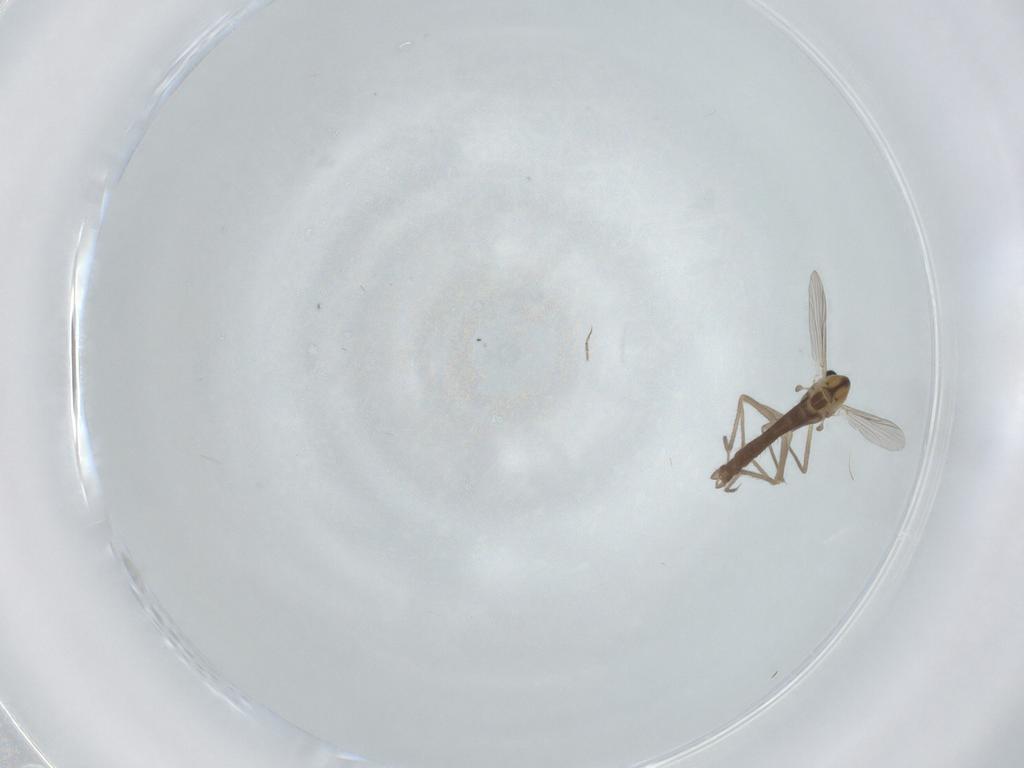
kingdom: Animalia
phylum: Arthropoda
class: Insecta
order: Diptera
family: Chironomidae
